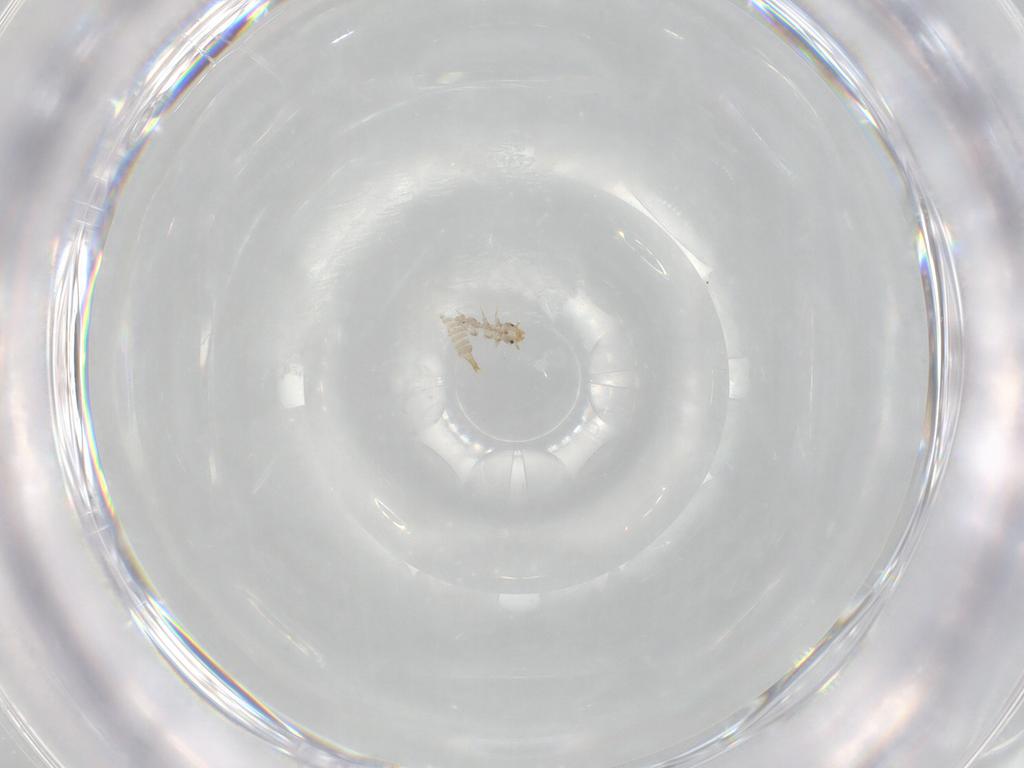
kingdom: Animalia
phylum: Arthropoda
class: Insecta
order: Coleoptera
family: Phalacridae
